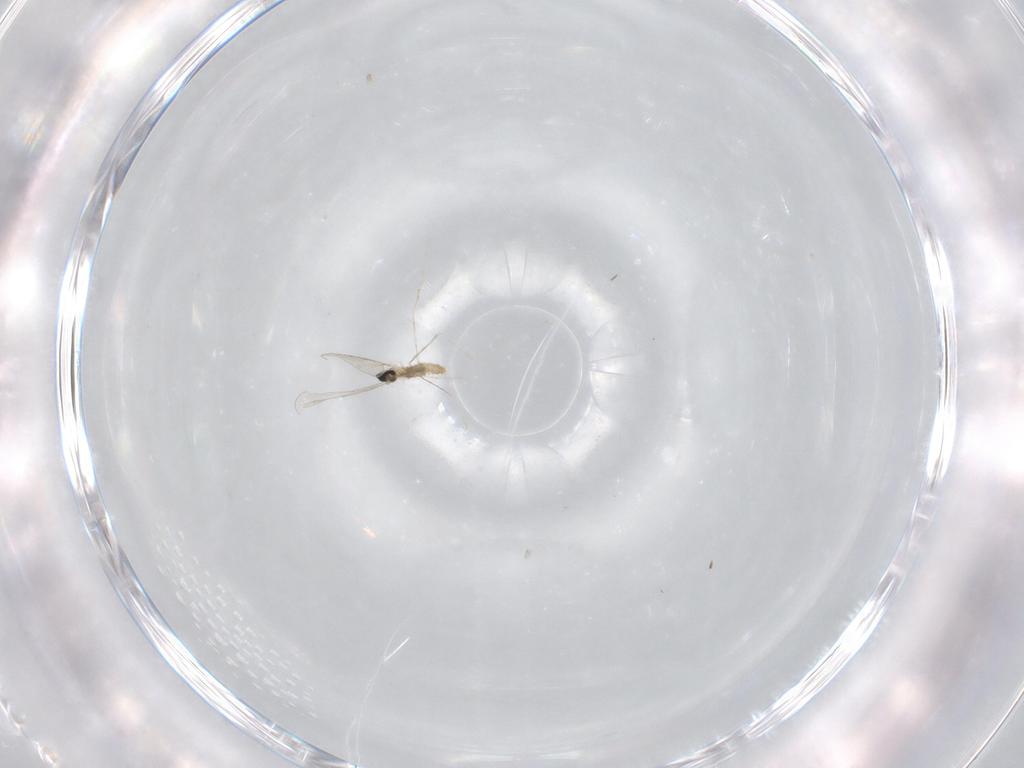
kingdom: Animalia
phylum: Arthropoda
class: Insecta
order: Diptera
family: Cecidomyiidae
